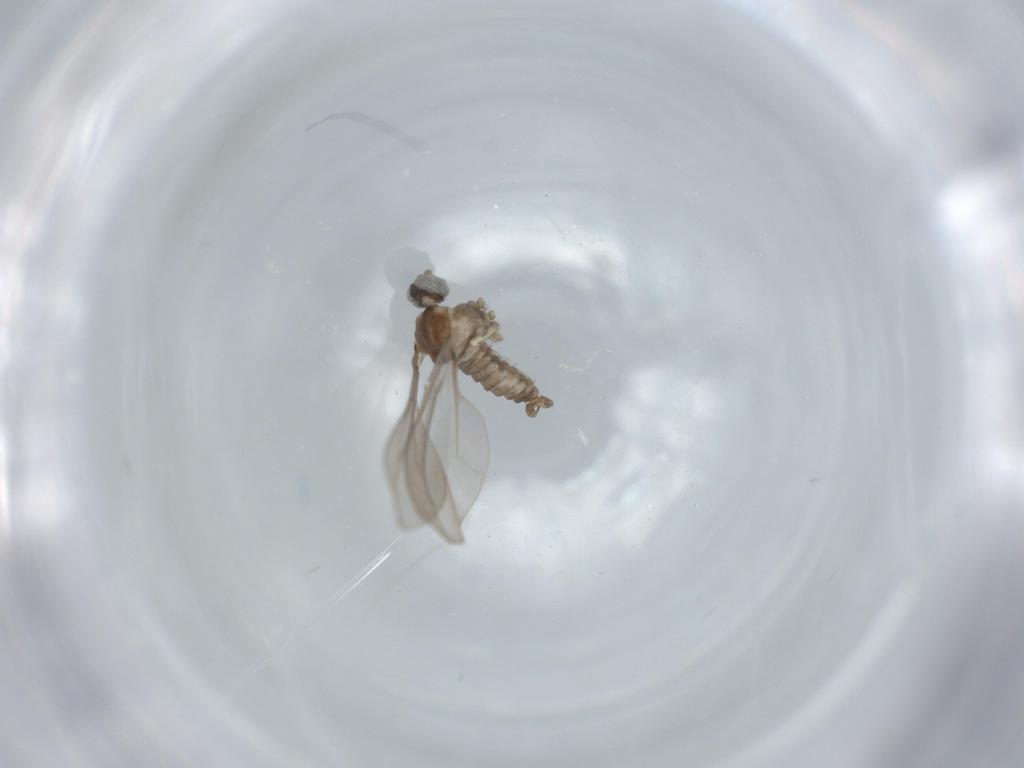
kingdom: Animalia
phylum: Arthropoda
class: Insecta
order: Diptera
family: Cecidomyiidae
